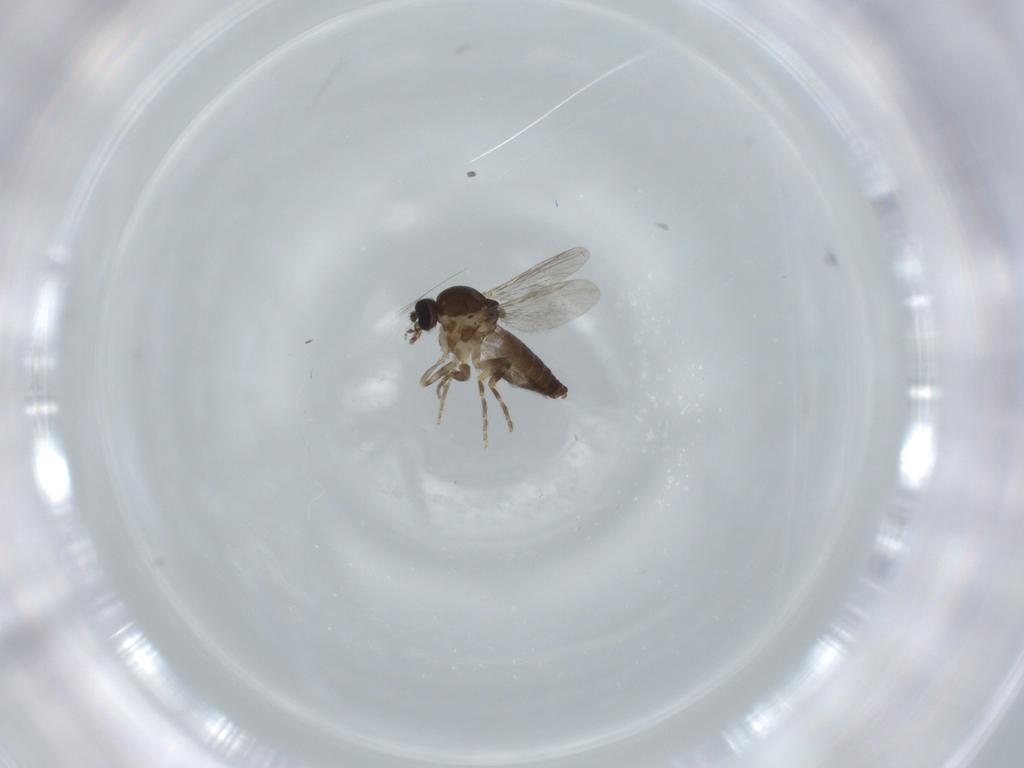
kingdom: Animalia
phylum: Arthropoda
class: Insecta
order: Diptera
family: Ceratopogonidae
